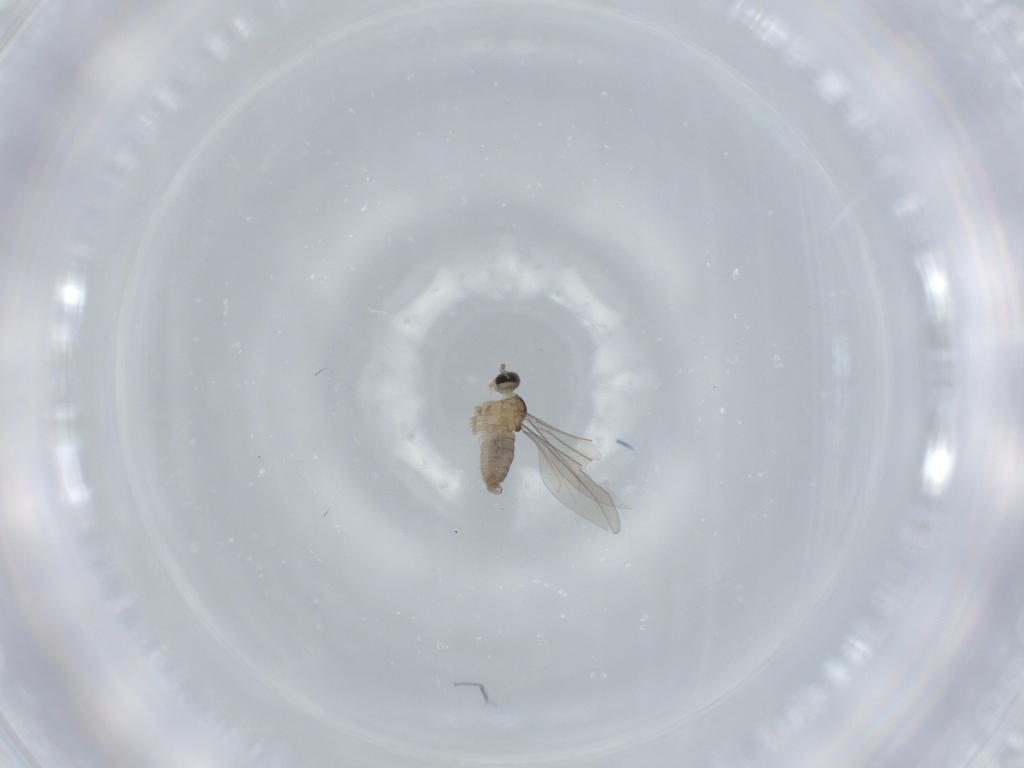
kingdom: Animalia
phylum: Arthropoda
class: Insecta
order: Diptera
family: Cecidomyiidae
